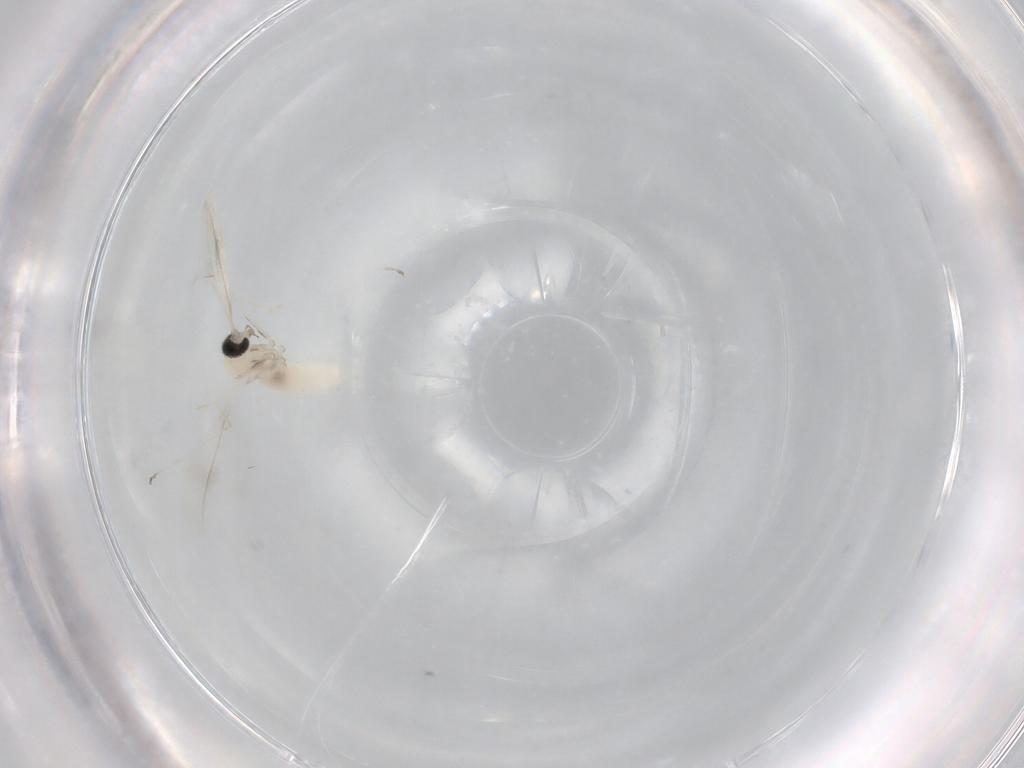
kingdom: Animalia
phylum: Arthropoda
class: Insecta
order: Diptera
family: Cecidomyiidae
